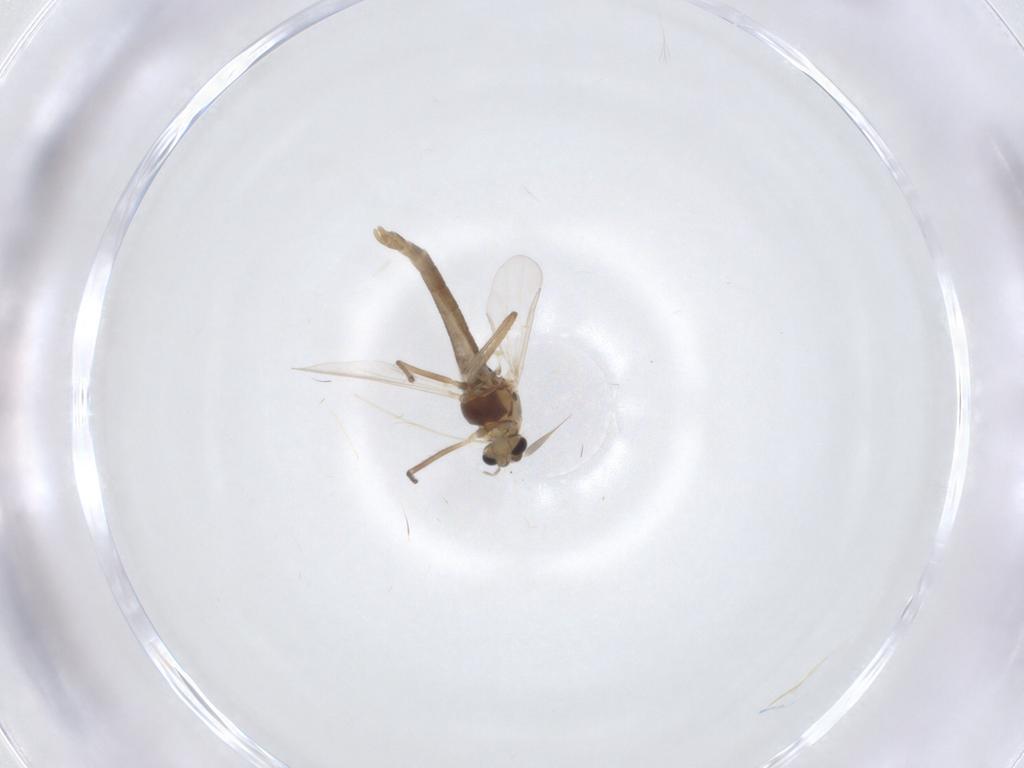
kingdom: Animalia
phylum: Arthropoda
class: Insecta
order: Diptera
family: Chironomidae
